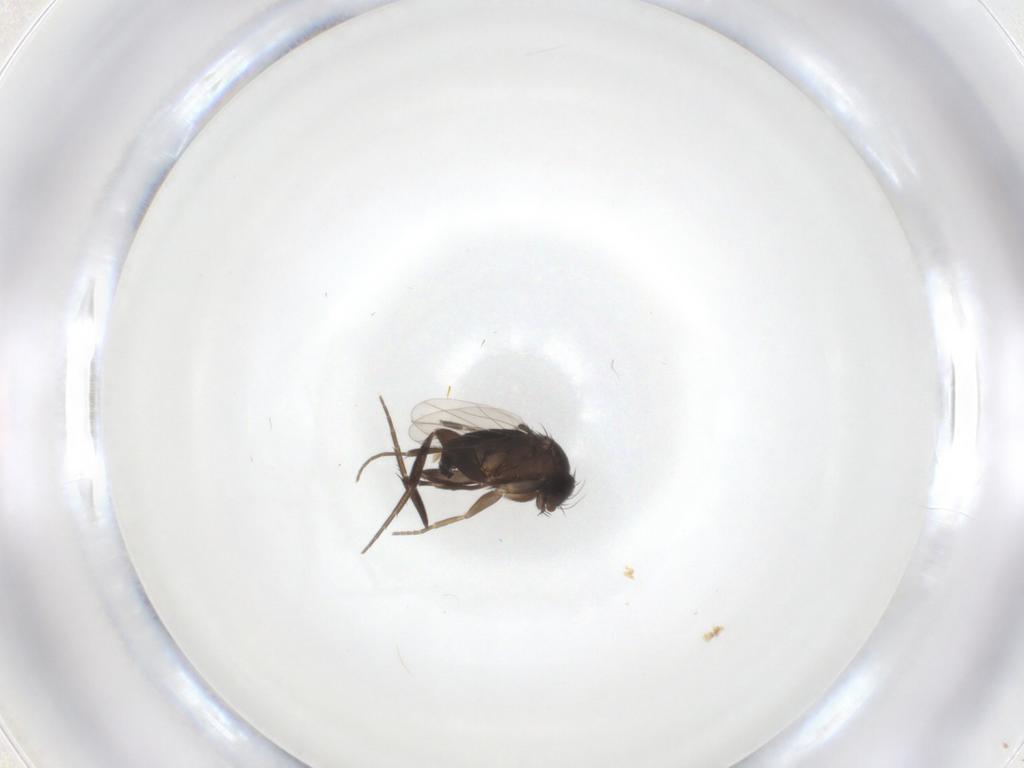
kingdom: Animalia
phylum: Arthropoda
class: Insecta
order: Diptera
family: Phoridae
